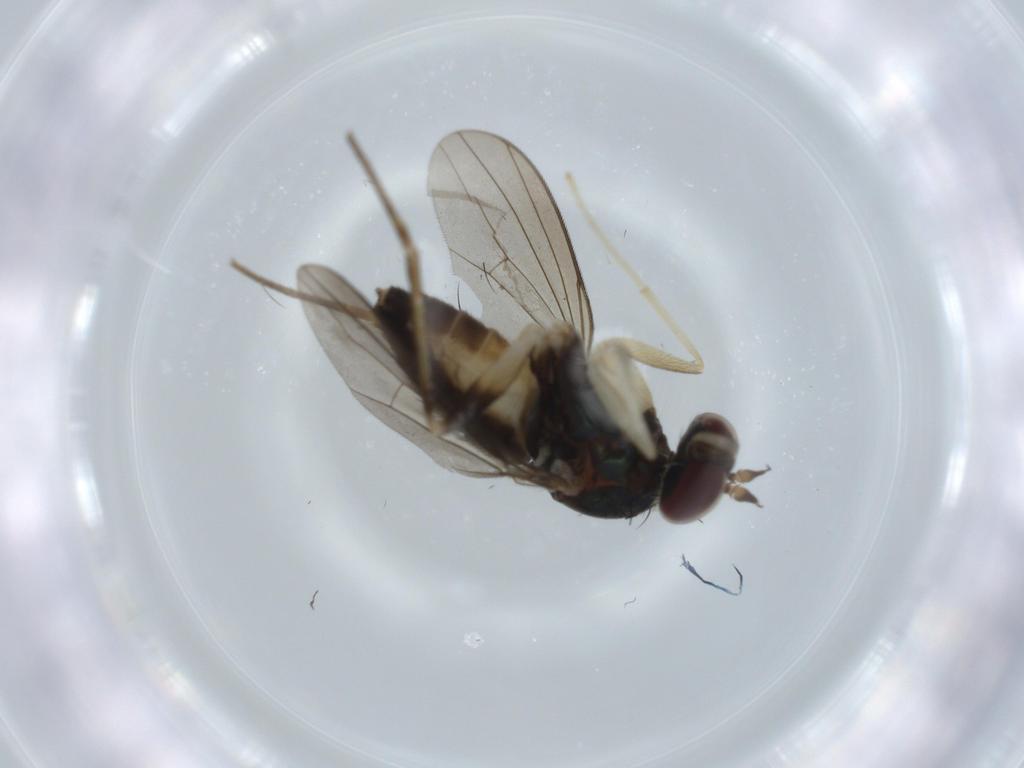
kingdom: Animalia
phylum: Arthropoda
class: Insecta
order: Diptera
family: Dolichopodidae
